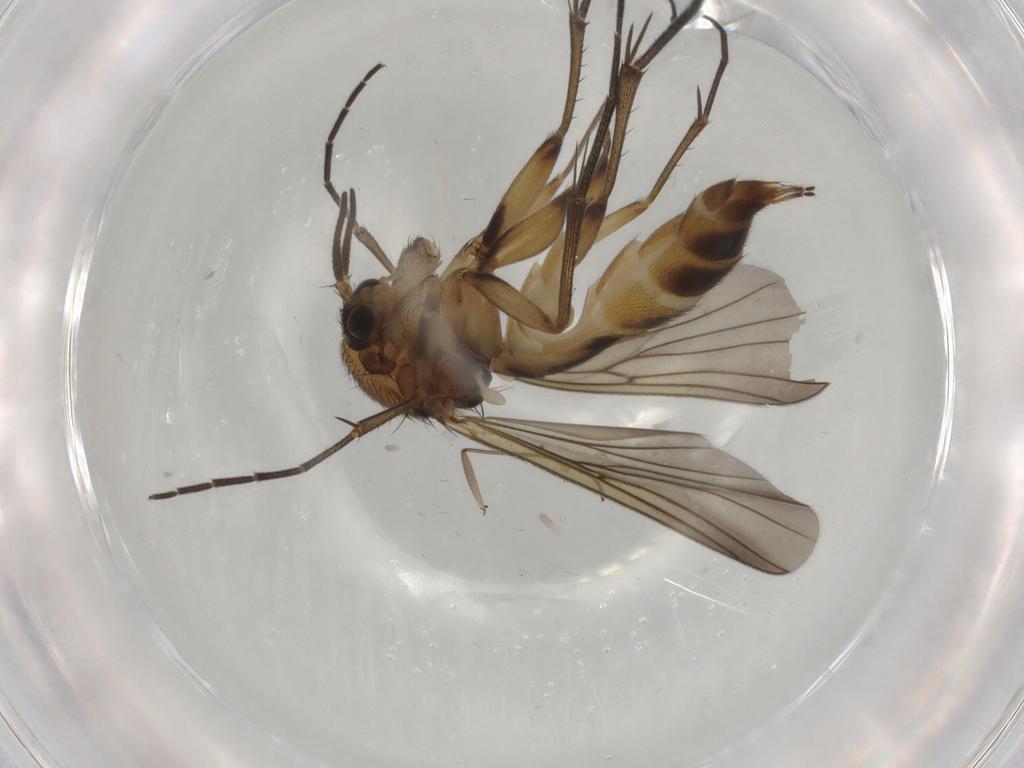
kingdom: Animalia
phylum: Arthropoda
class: Insecta
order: Diptera
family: Mycetophilidae
